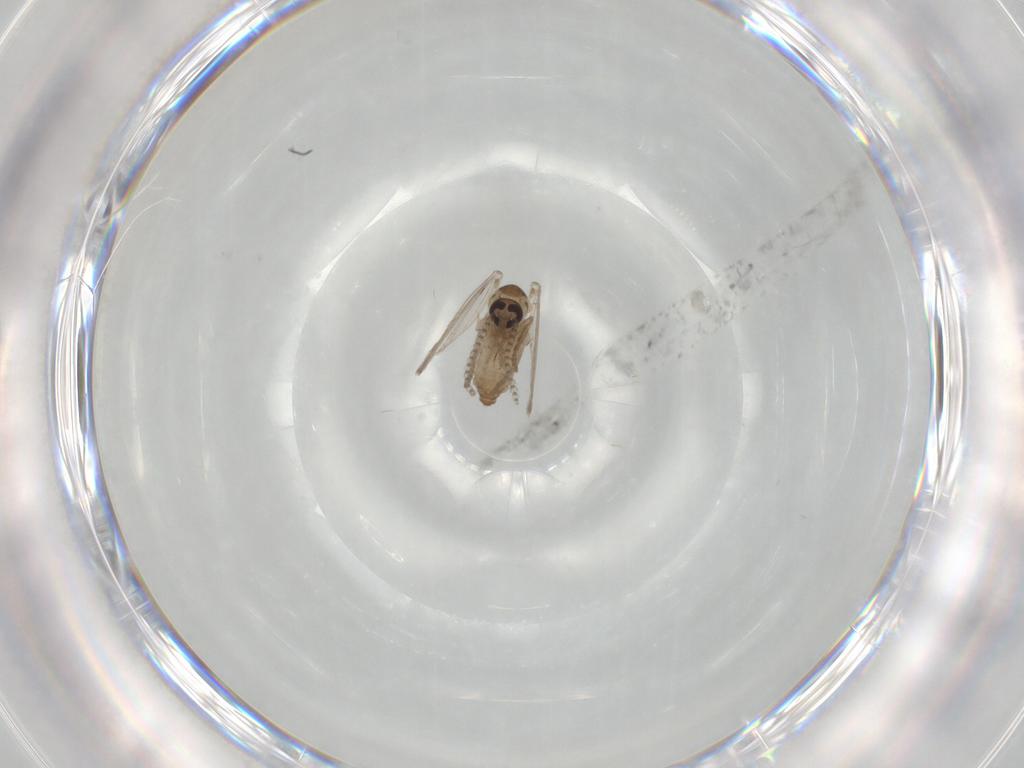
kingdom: Animalia
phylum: Arthropoda
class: Insecta
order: Diptera
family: Psychodidae
